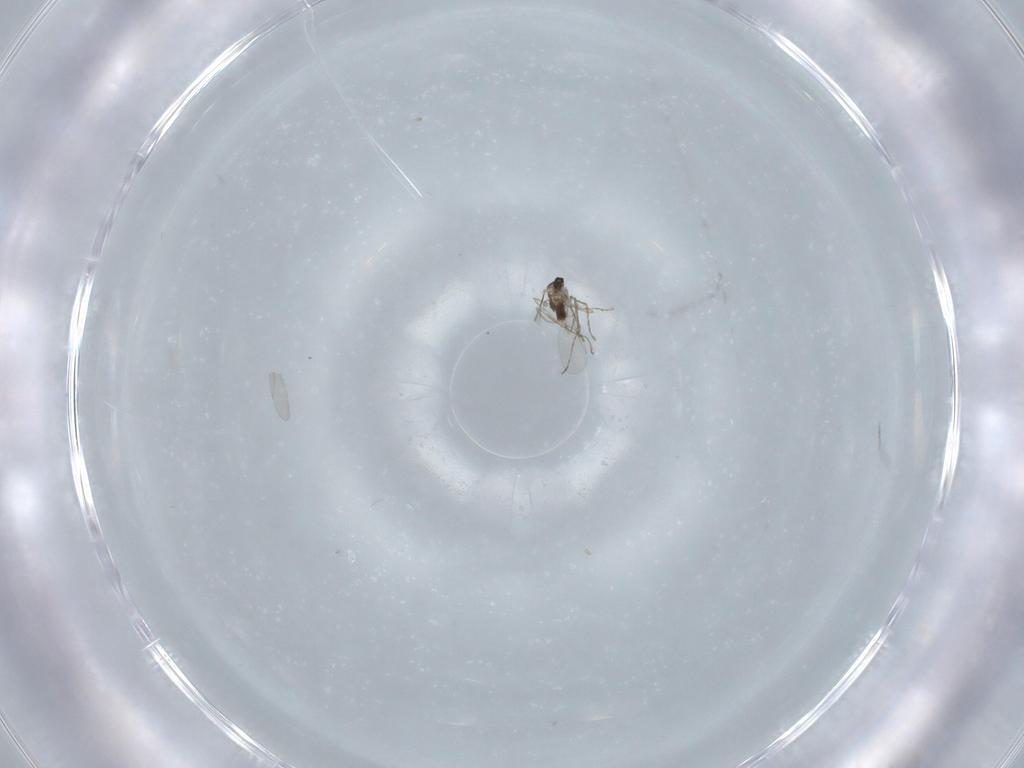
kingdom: Animalia
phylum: Arthropoda
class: Insecta
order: Diptera
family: Cecidomyiidae
